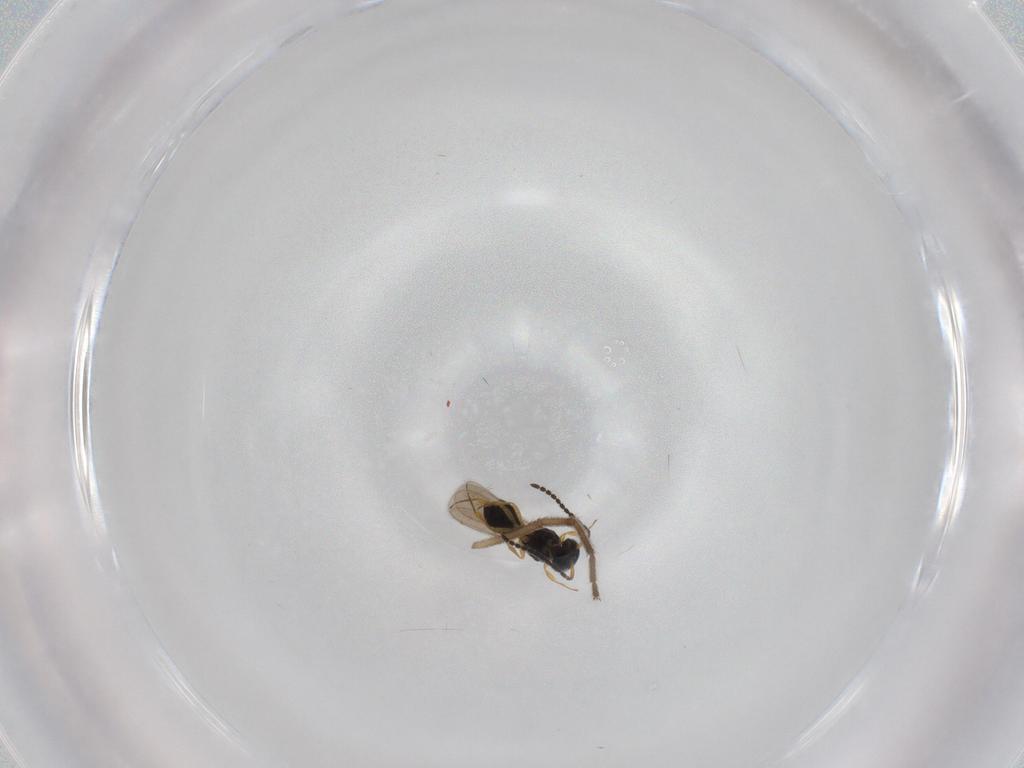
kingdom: Animalia
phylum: Arthropoda
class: Insecta
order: Hymenoptera
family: Scelionidae
